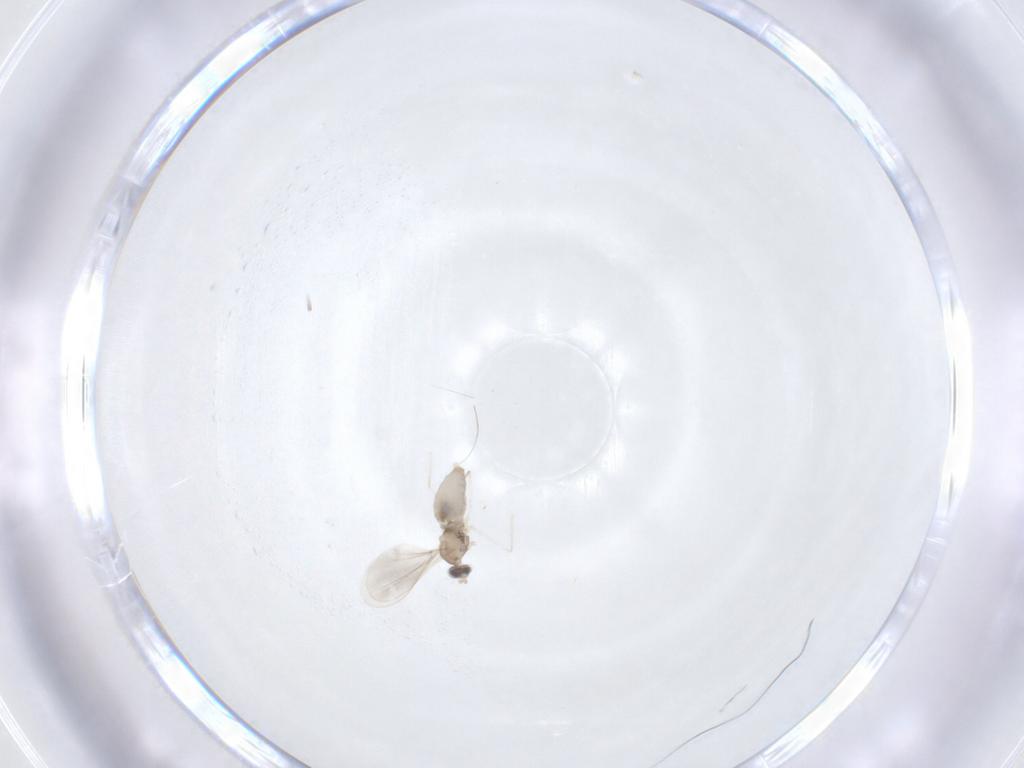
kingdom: Animalia
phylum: Arthropoda
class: Insecta
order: Diptera
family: Cecidomyiidae
